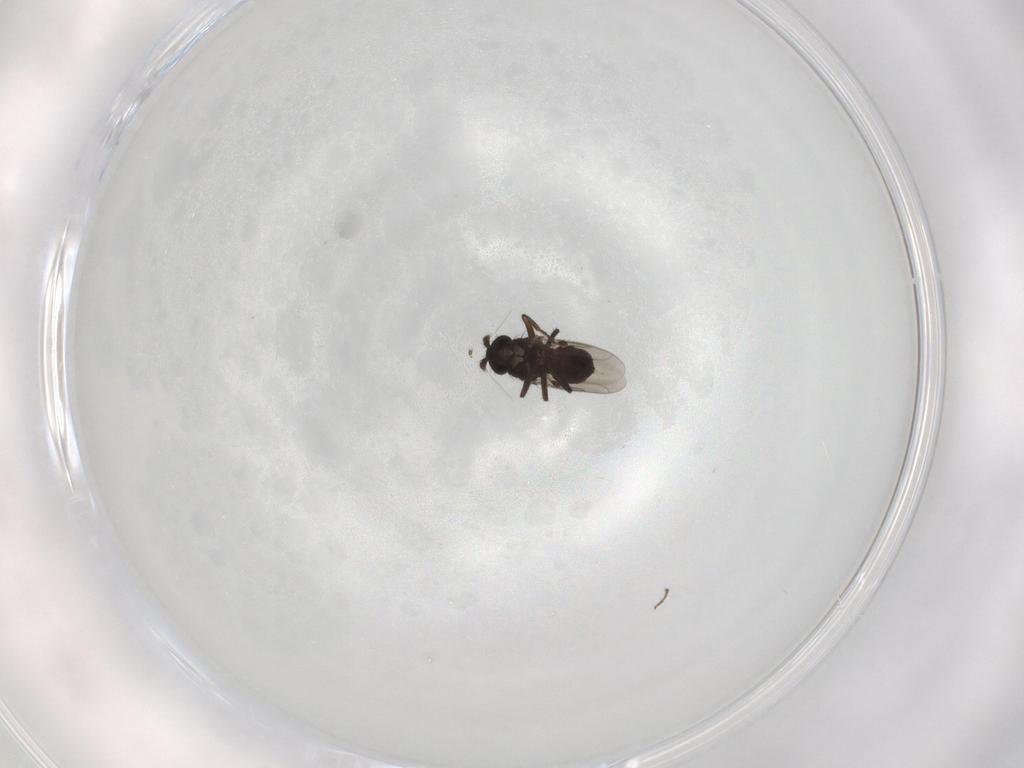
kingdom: Animalia
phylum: Arthropoda
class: Insecta
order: Diptera
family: Sphaeroceridae
